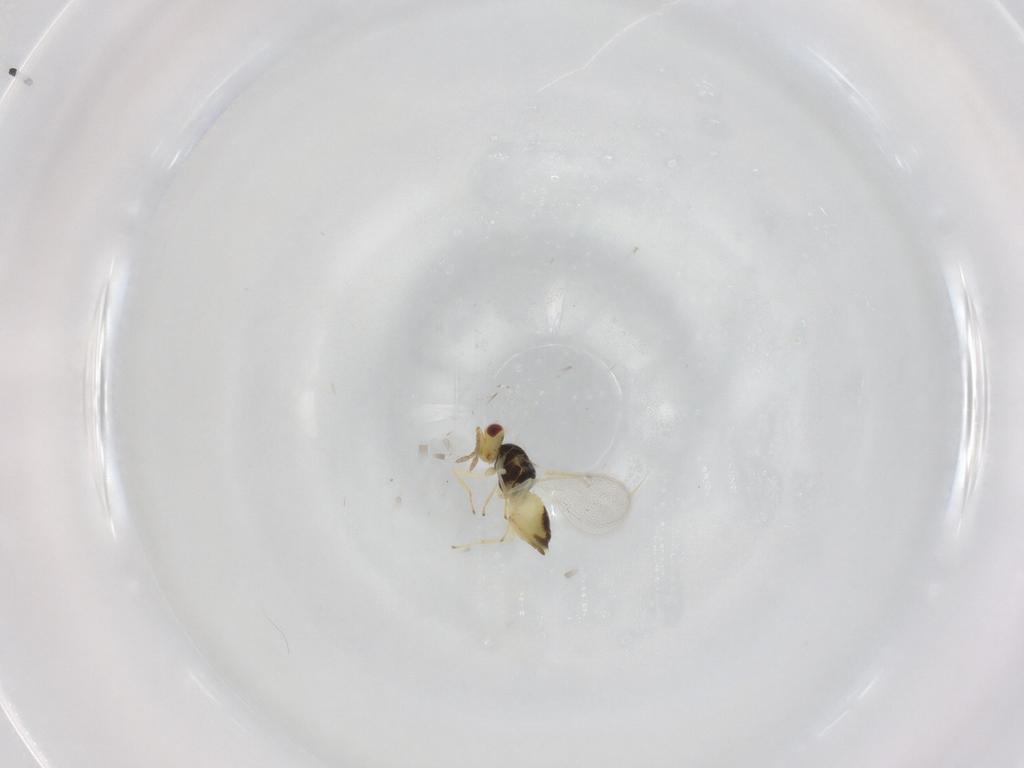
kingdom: Animalia
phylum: Arthropoda
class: Insecta
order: Hymenoptera
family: Eulophidae
